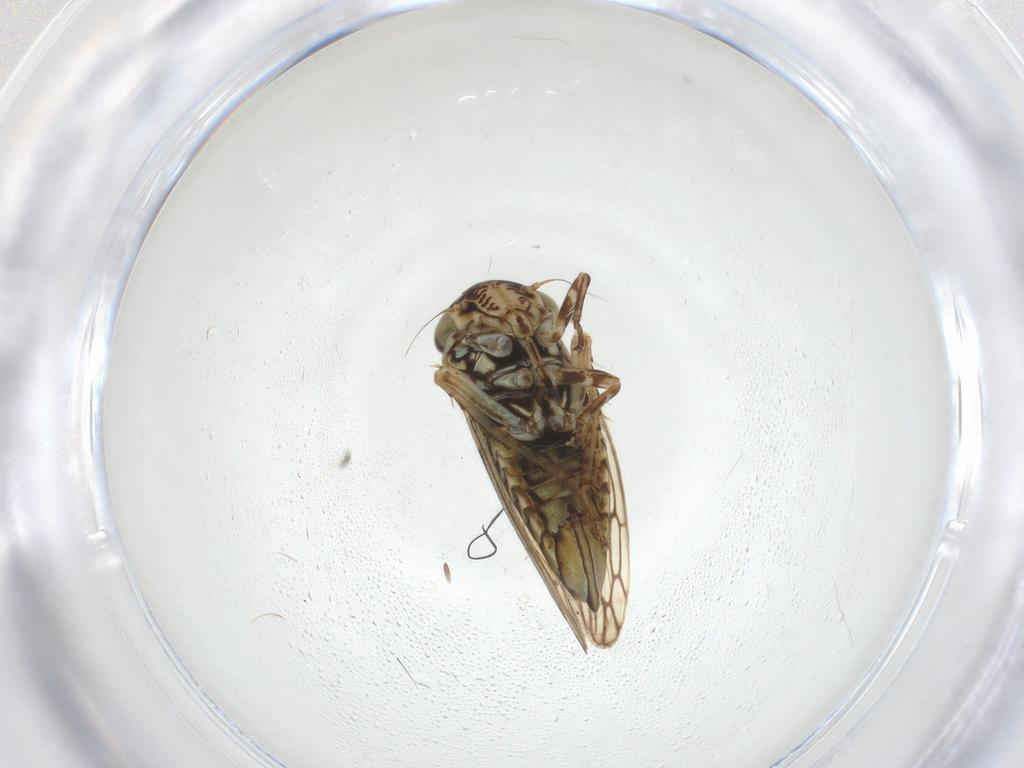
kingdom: Animalia
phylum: Arthropoda
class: Insecta
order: Hemiptera
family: Cicadellidae
